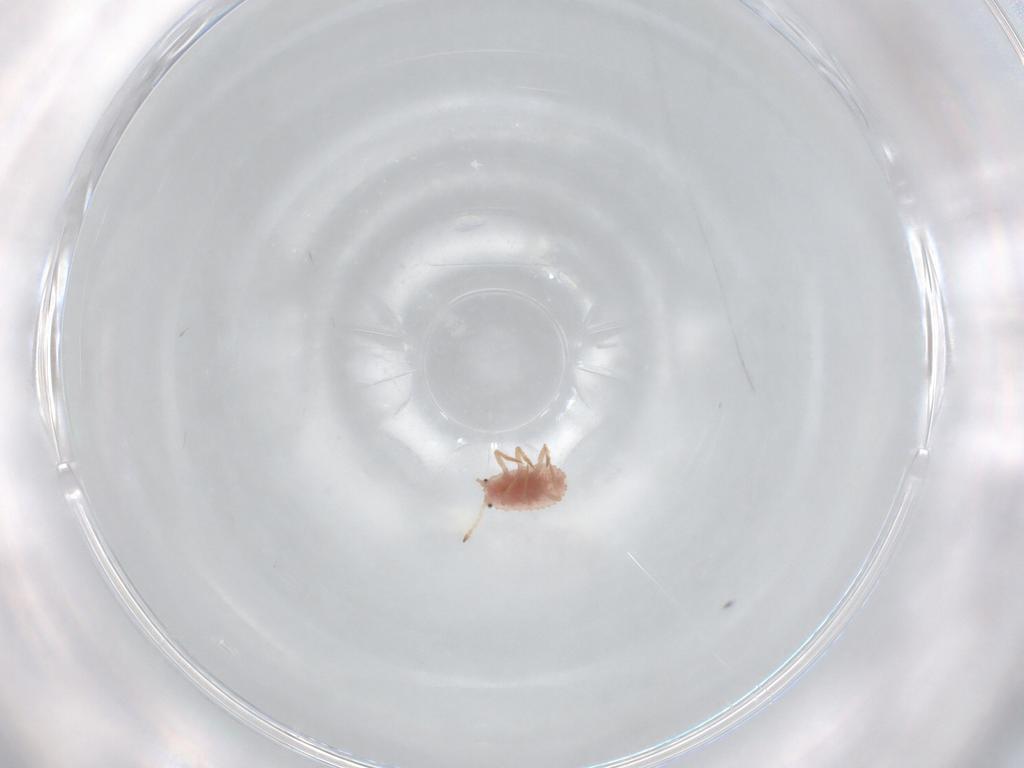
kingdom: Animalia
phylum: Arthropoda
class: Insecta
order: Hemiptera
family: Coccoidea_incertae_sedis
